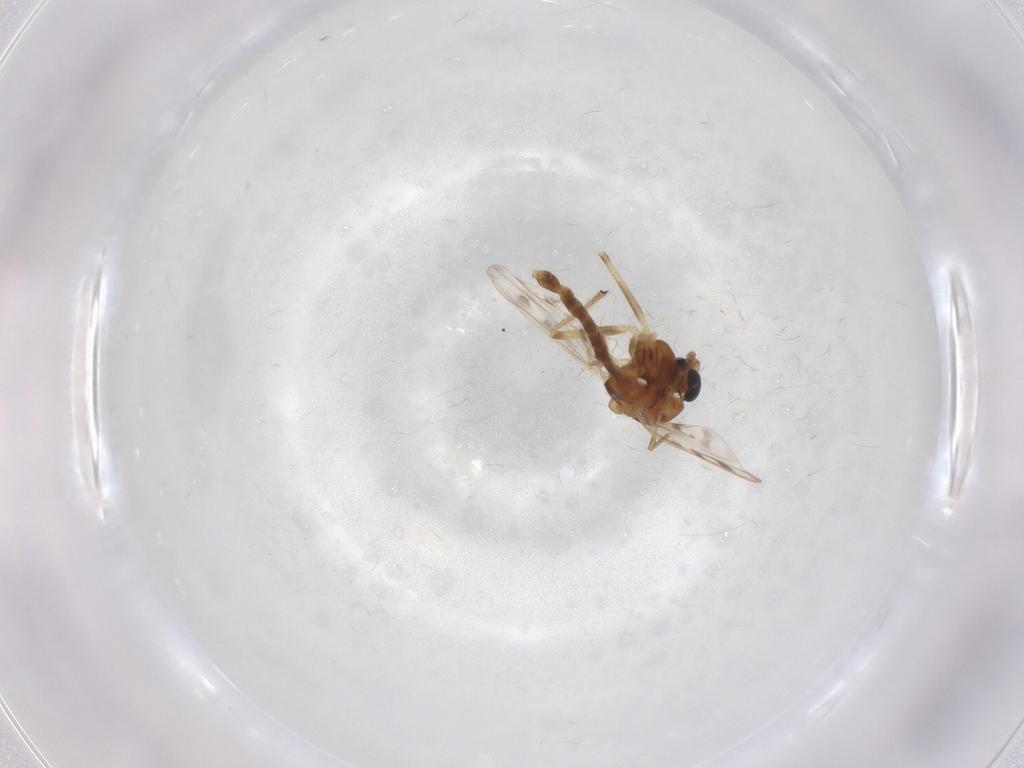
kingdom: Animalia
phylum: Arthropoda
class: Insecta
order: Diptera
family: Chironomidae
